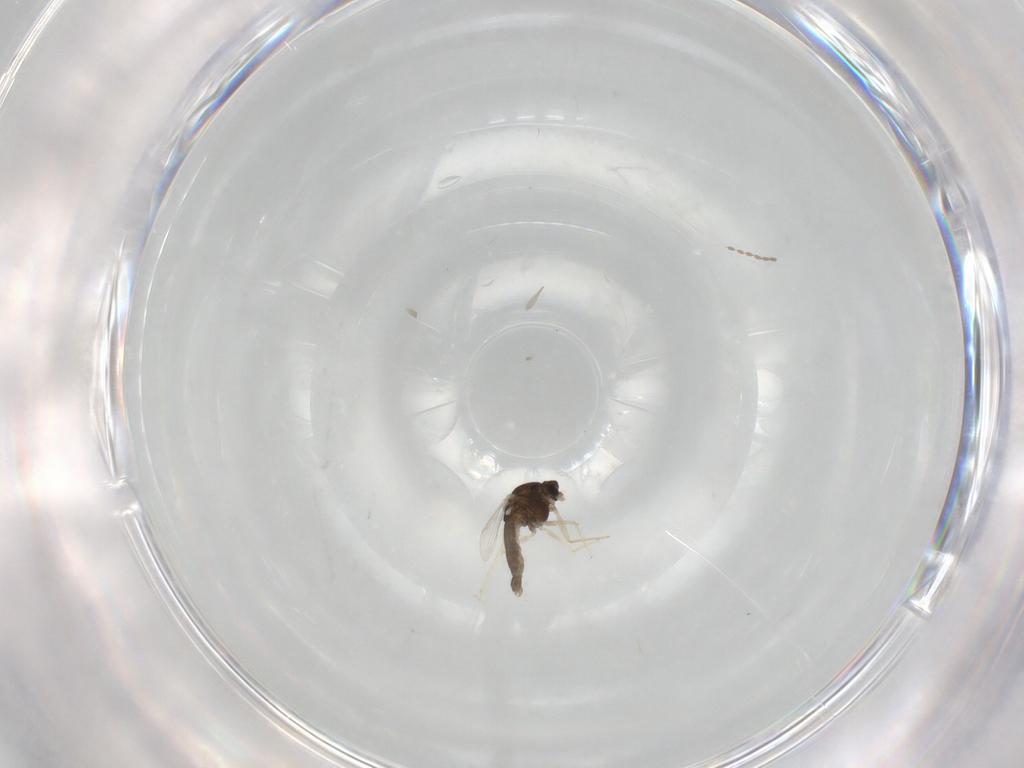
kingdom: Animalia
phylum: Arthropoda
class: Insecta
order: Diptera
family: Cecidomyiidae
